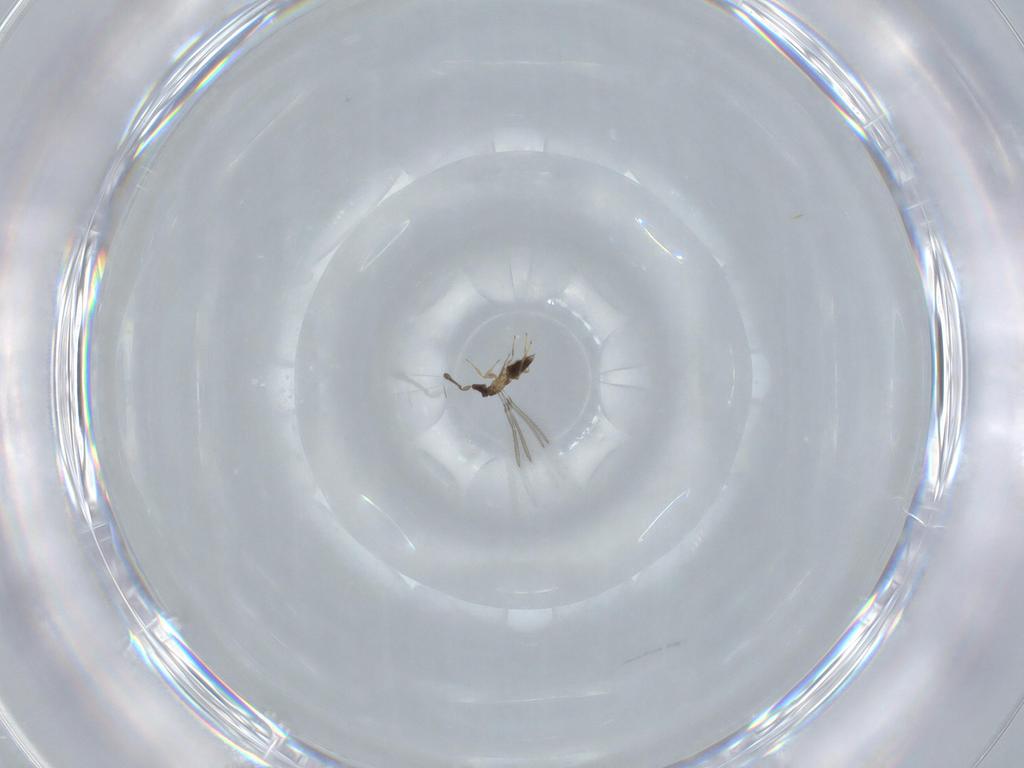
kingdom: Animalia
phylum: Arthropoda
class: Insecta
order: Hymenoptera
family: Mymaridae
